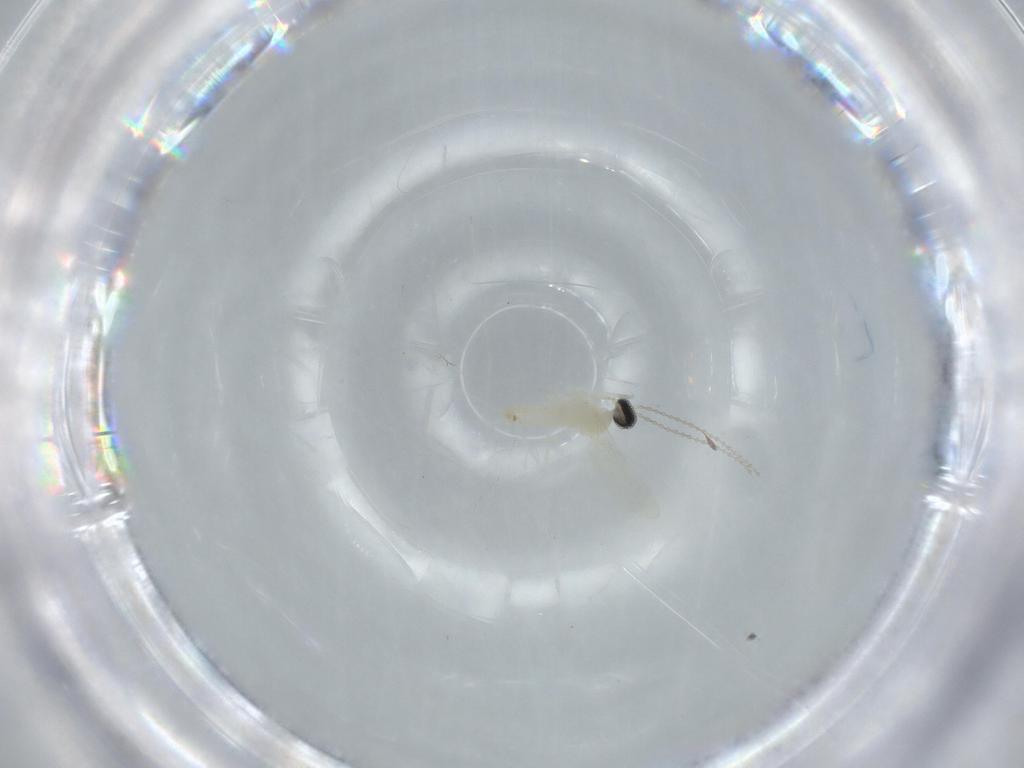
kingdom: Animalia
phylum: Arthropoda
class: Insecta
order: Diptera
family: Cecidomyiidae
